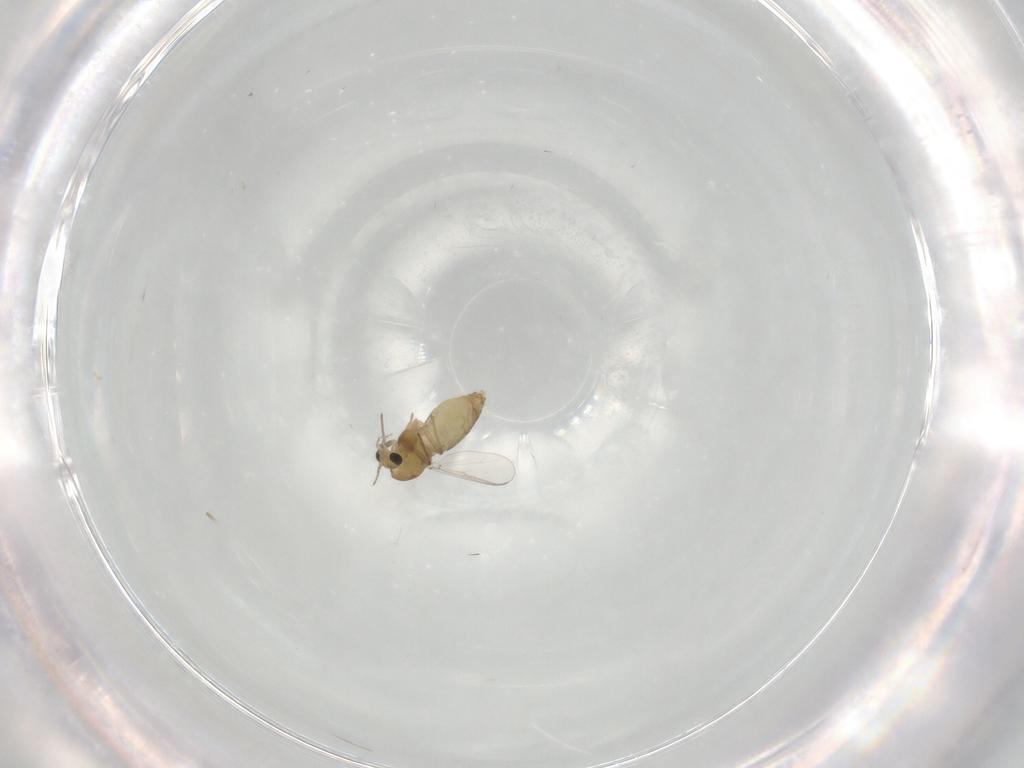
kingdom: Animalia
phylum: Arthropoda
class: Insecta
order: Diptera
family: Chironomidae
